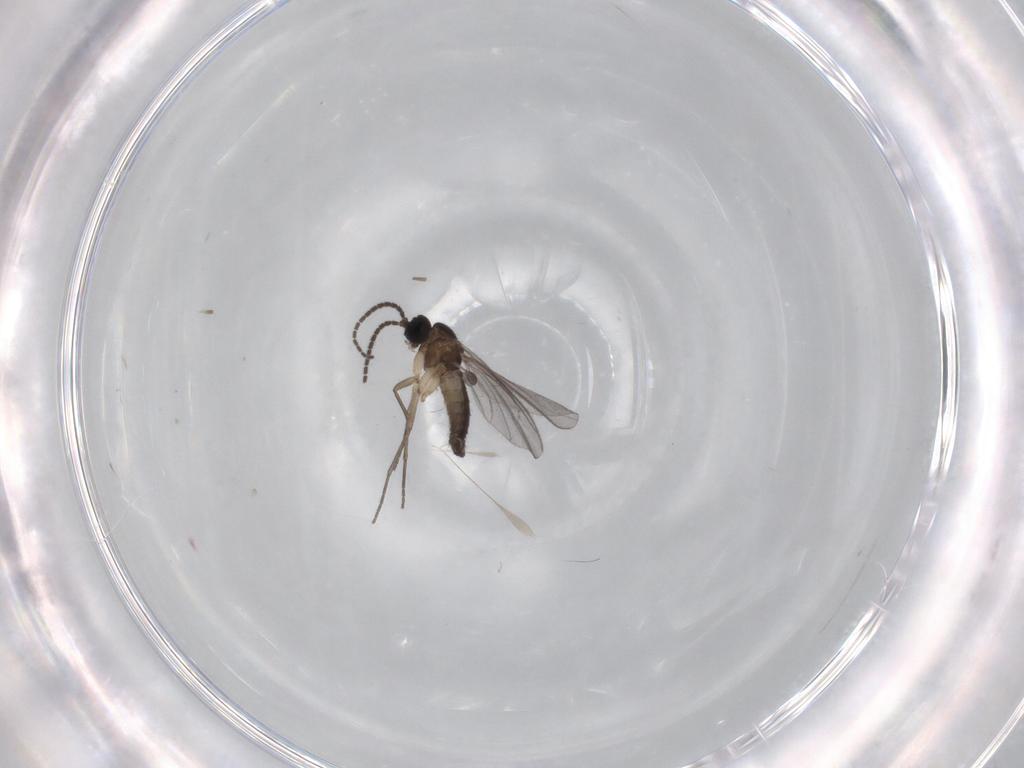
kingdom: Animalia
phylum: Arthropoda
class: Insecta
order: Diptera
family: Sciaridae
